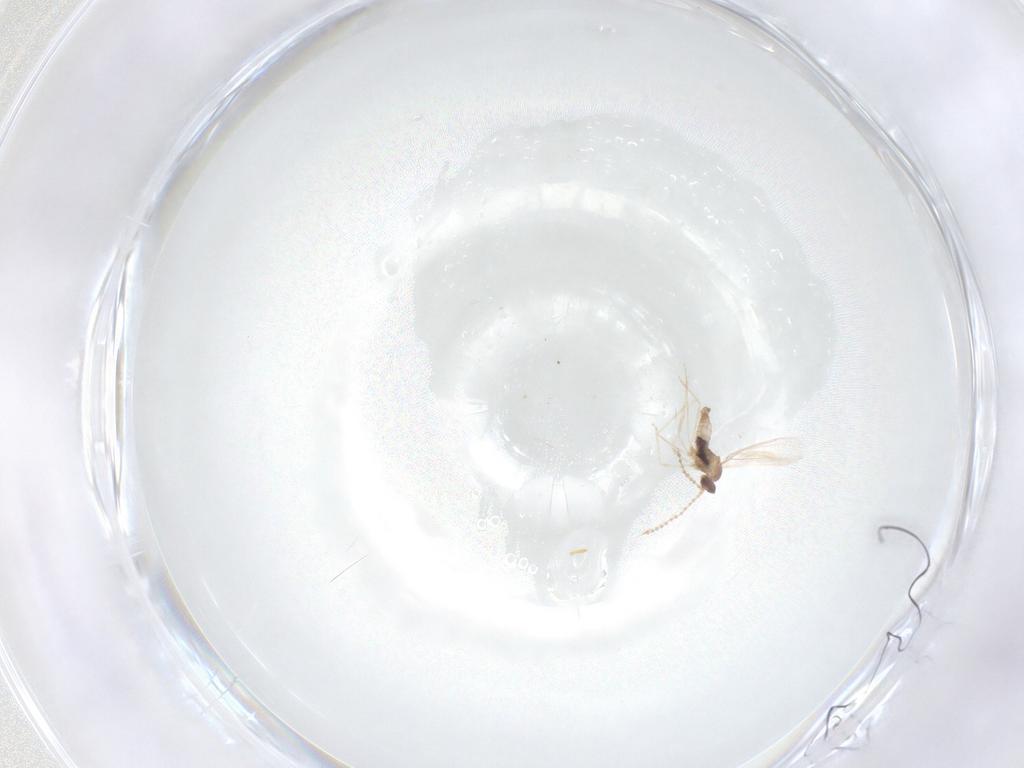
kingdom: Animalia
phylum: Arthropoda
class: Insecta
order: Diptera
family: Cecidomyiidae
